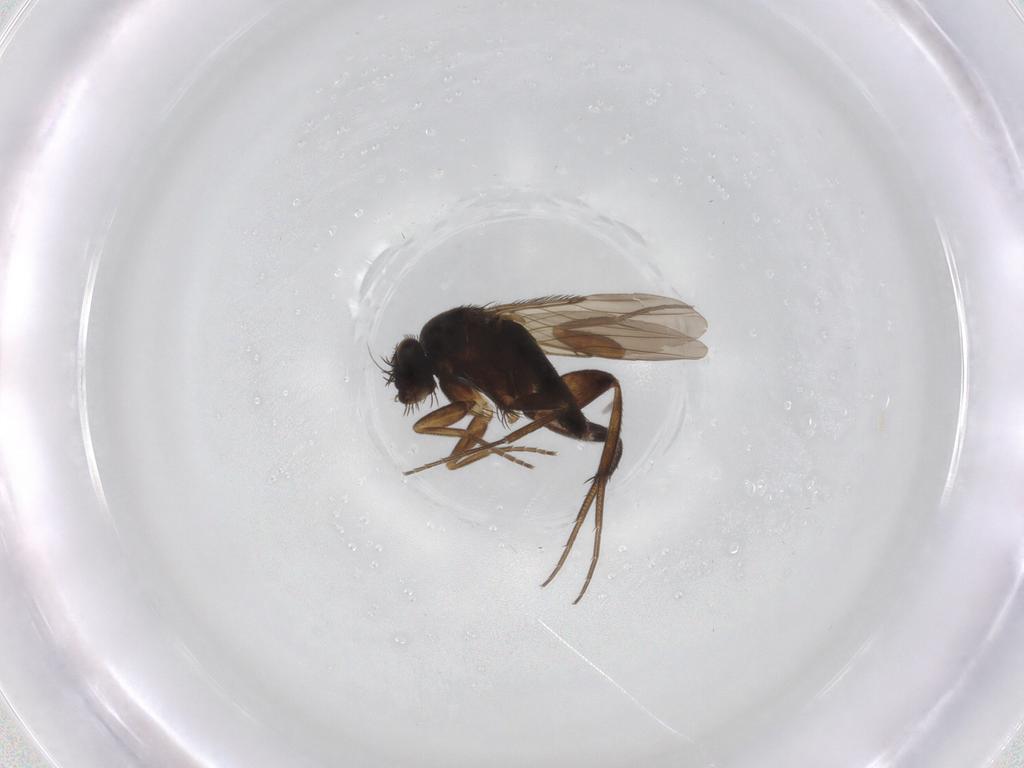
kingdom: Animalia
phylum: Arthropoda
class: Insecta
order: Diptera
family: Phoridae
